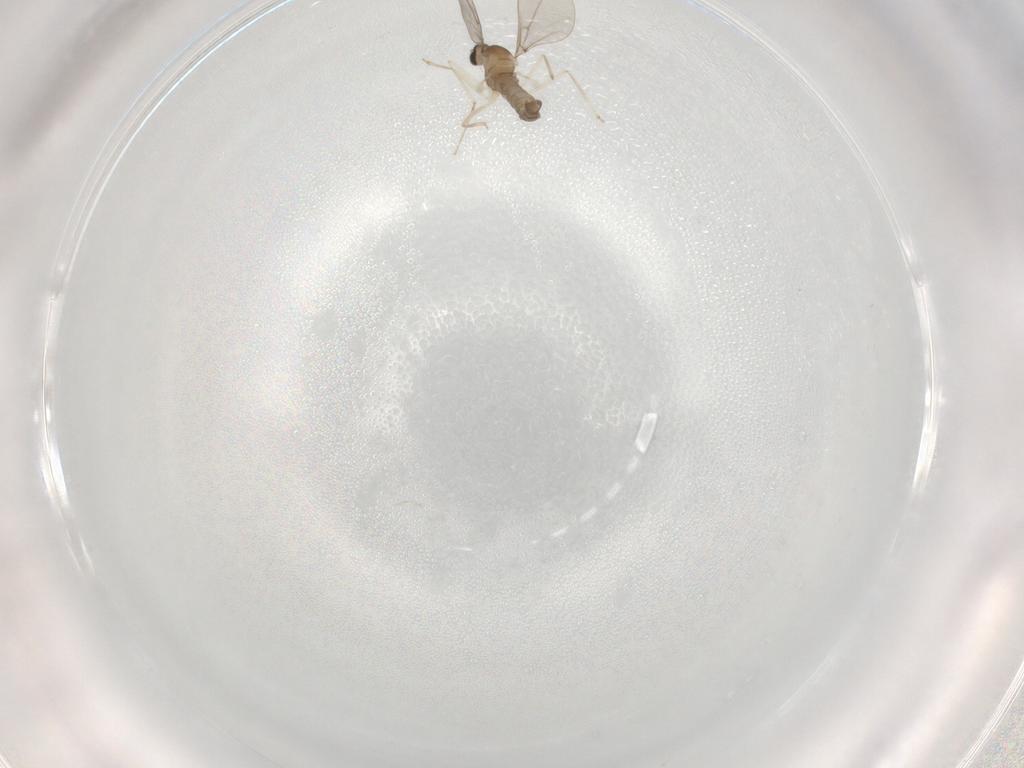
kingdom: Animalia
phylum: Arthropoda
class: Insecta
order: Diptera
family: Cecidomyiidae
